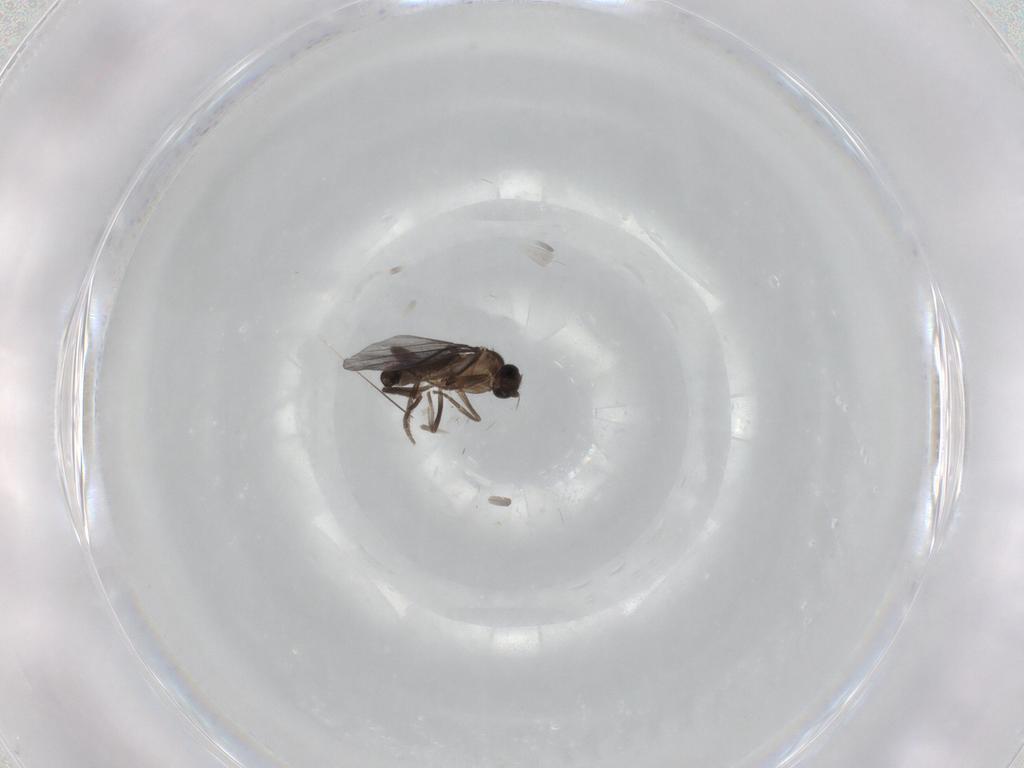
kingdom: Animalia
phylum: Arthropoda
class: Insecta
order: Diptera
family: Phoridae
